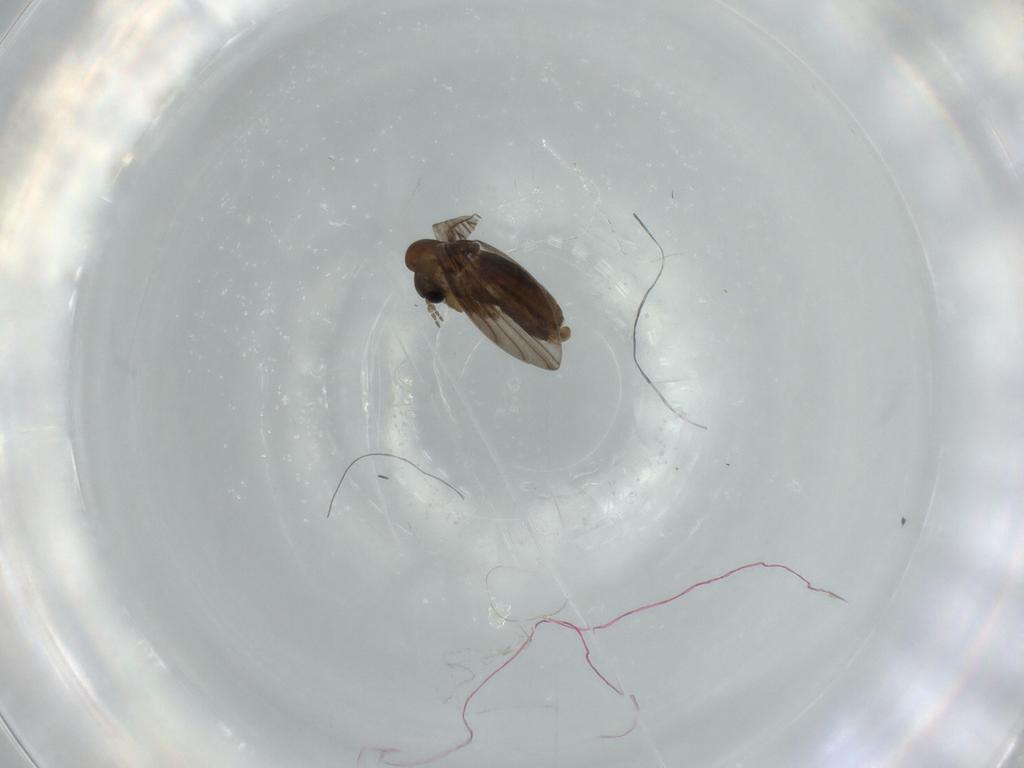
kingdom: Animalia
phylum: Arthropoda
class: Insecta
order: Diptera
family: Psychodidae
